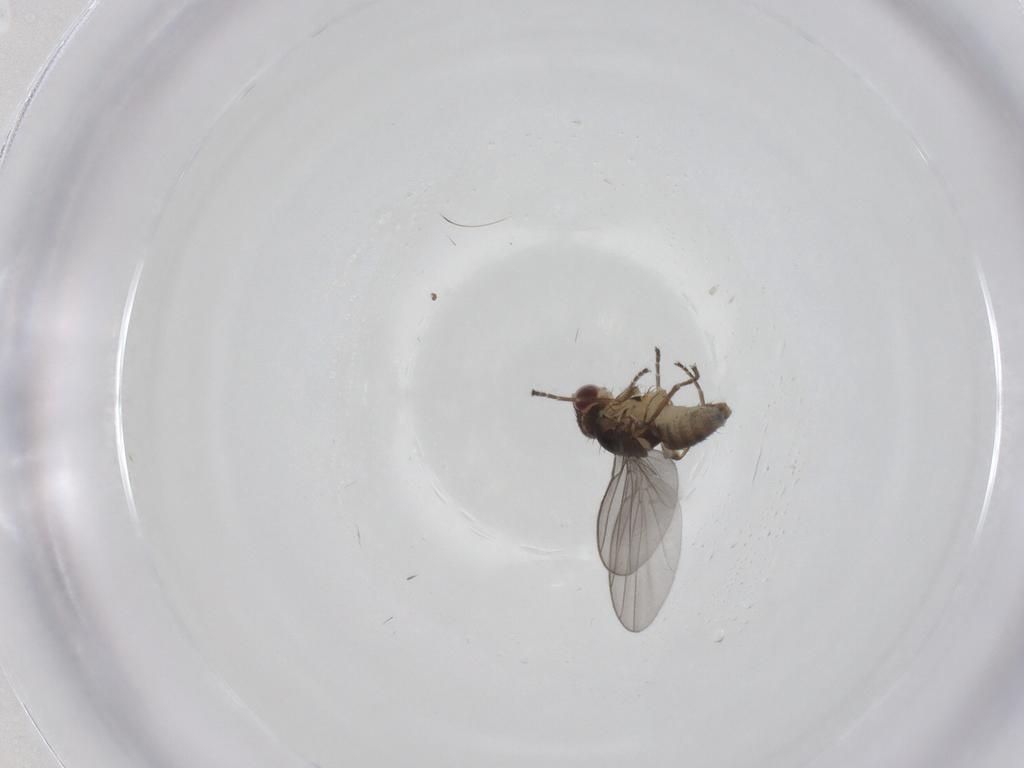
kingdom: Animalia
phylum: Arthropoda
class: Insecta
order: Diptera
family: Agromyzidae
